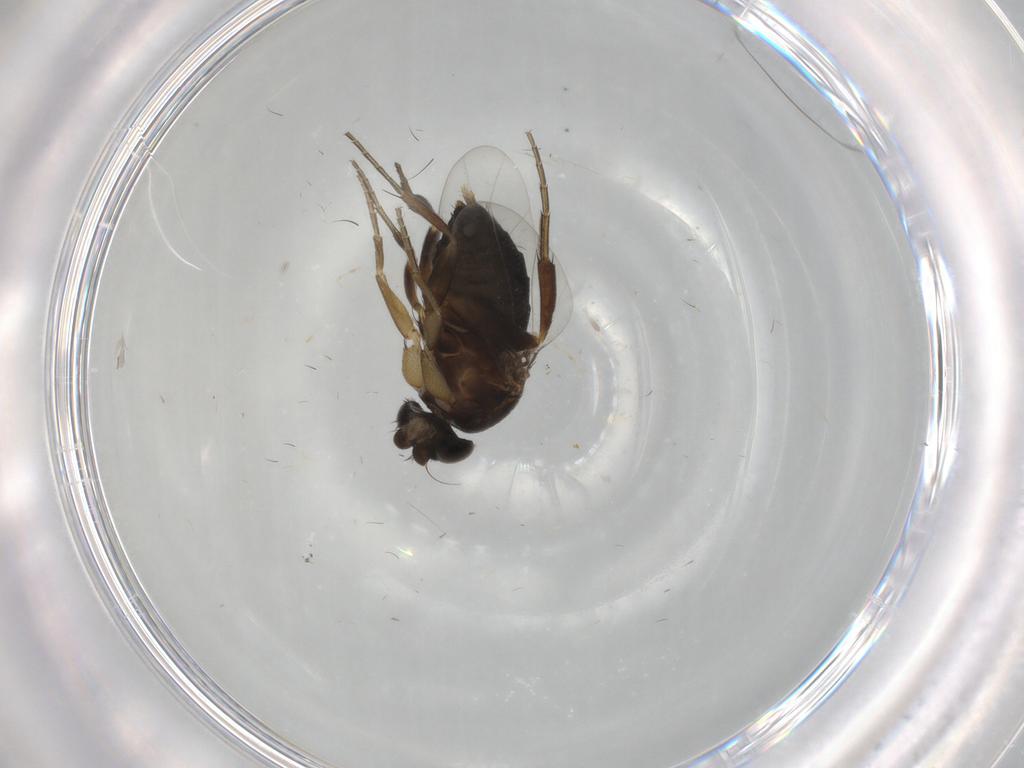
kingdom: Animalia
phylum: Arthropoda
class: Insecta
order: Diptera
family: Phoridae
